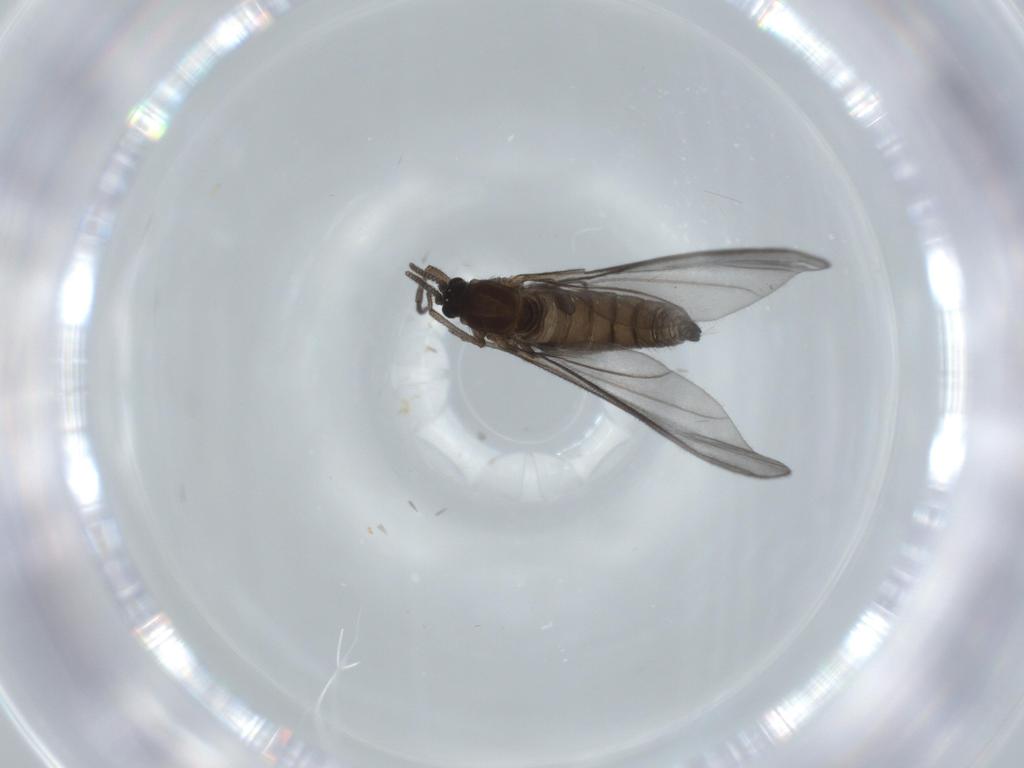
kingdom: Animalia
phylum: Arthropoda
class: Insecta
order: Diptera
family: Sciaridae
